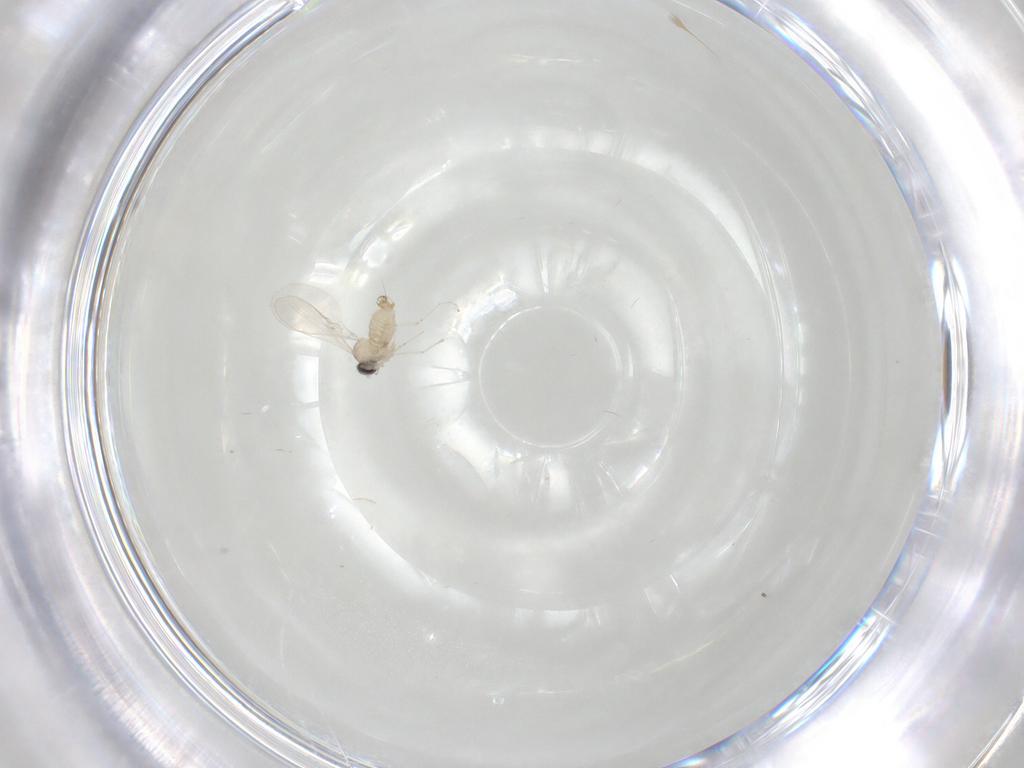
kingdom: Animalia
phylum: Arthropoda
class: Insecta
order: Diptera
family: Cecidomyiidae
